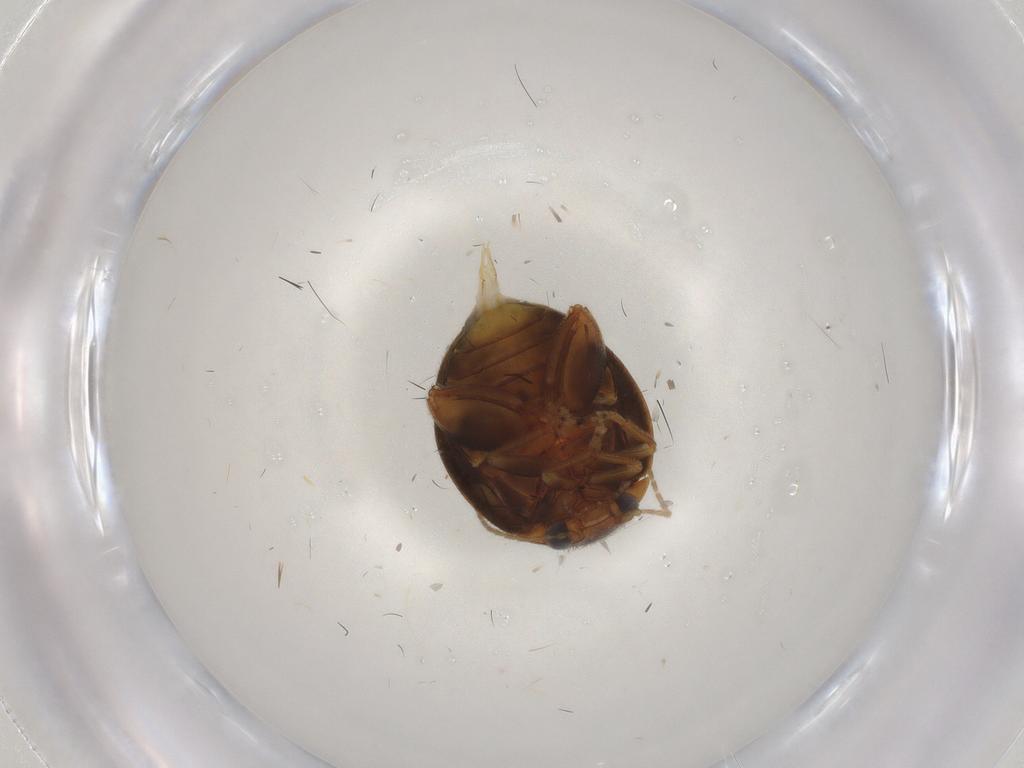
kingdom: Animalia
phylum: Arthropoda
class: Insecta
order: Coleoptera
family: Scirtidae
